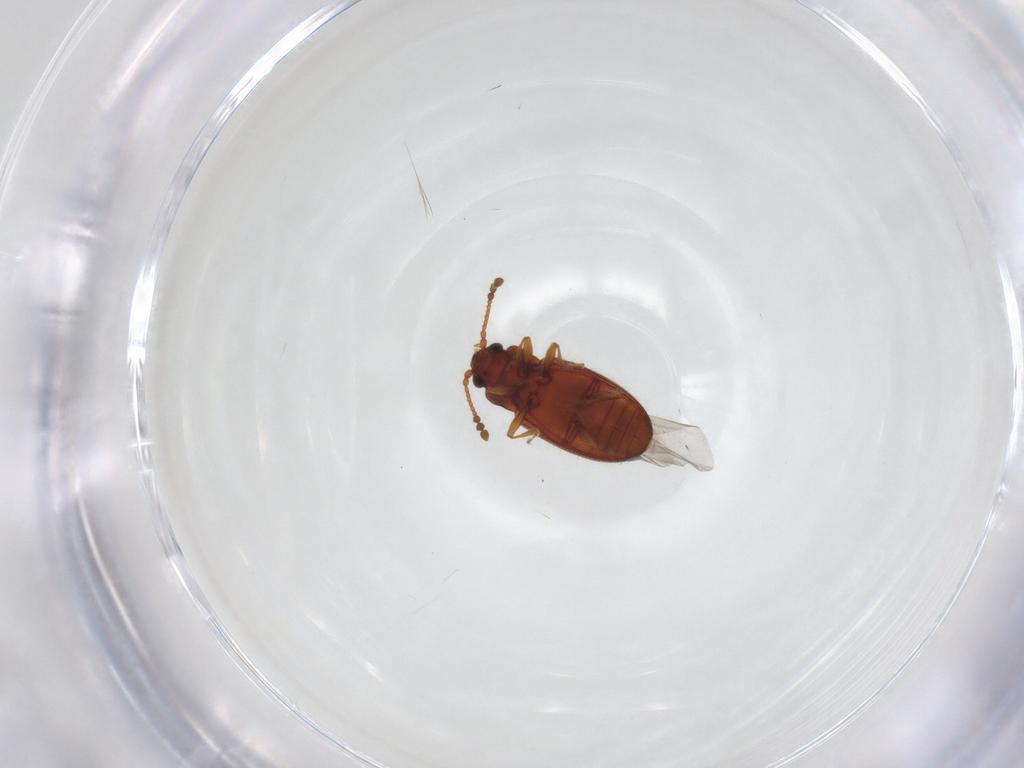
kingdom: Animalia
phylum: Arthropoda
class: Insecta
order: Coleoptera
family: Cryptophagidae
